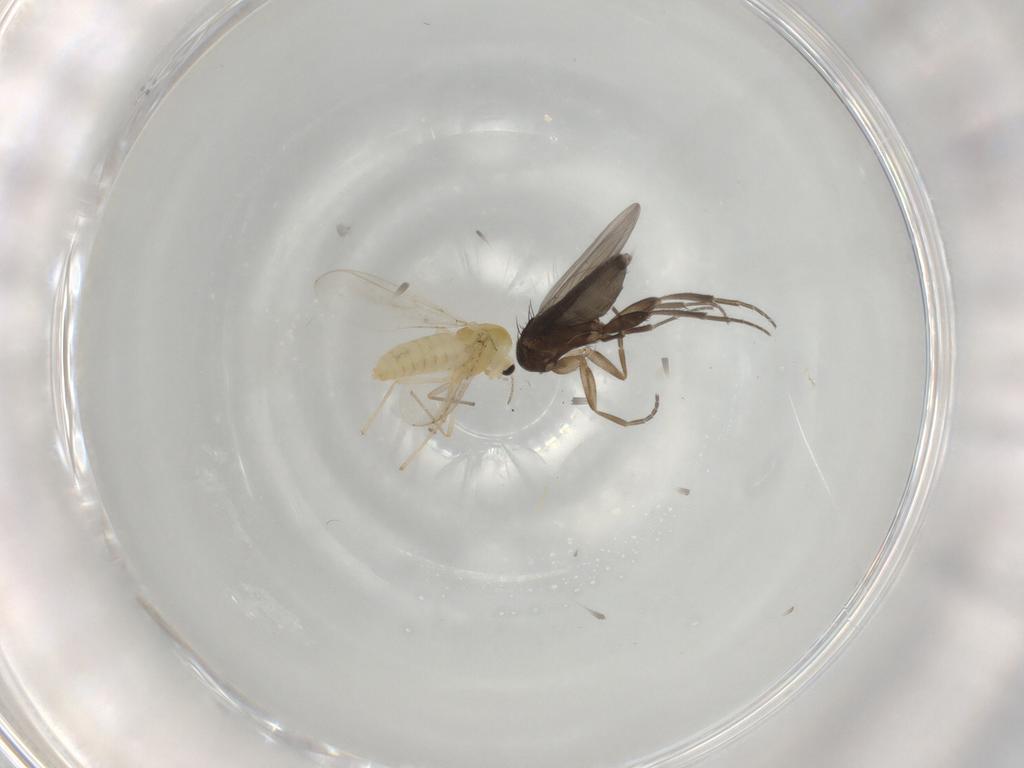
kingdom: Animalia
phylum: Arthropoda
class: Insecta
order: Diptera
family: Phoridae
